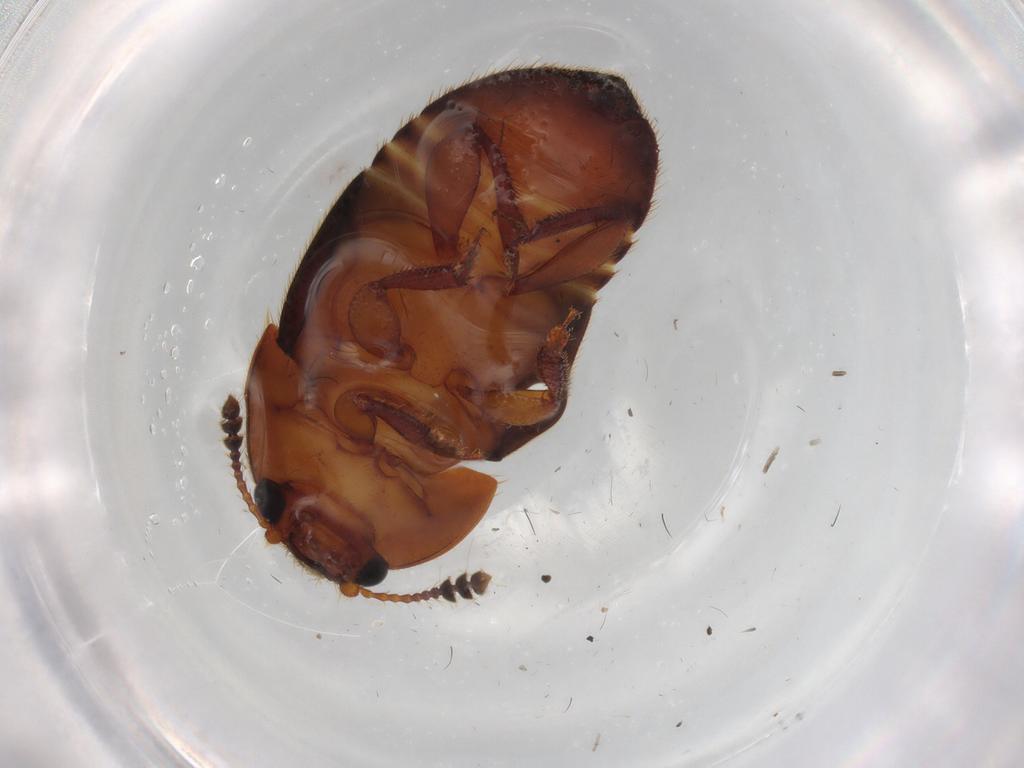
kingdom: Animalia
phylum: Arthropoda
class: Insecta
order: Coleoptera
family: Nitidulidae
